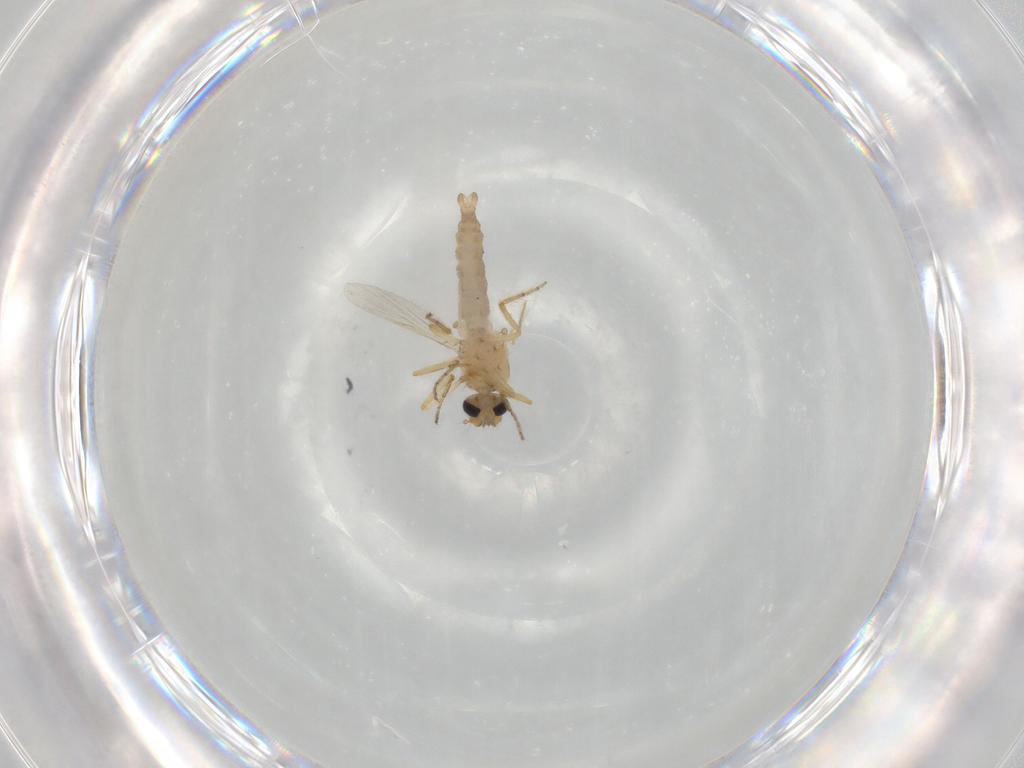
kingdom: Animalia
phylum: Arthropoda
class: Insecta
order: Diptera
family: Ceratopogonidae
